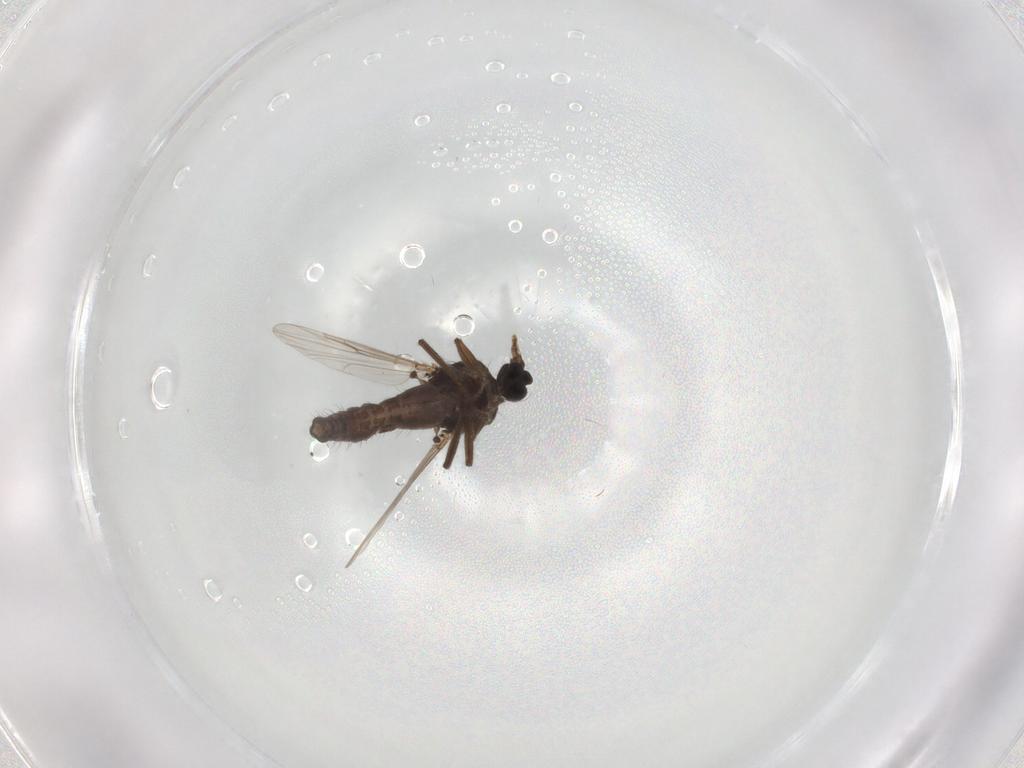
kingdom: Animalia
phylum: Arthropoda
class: Insecta
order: Diptera
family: Ceratopogonidae
